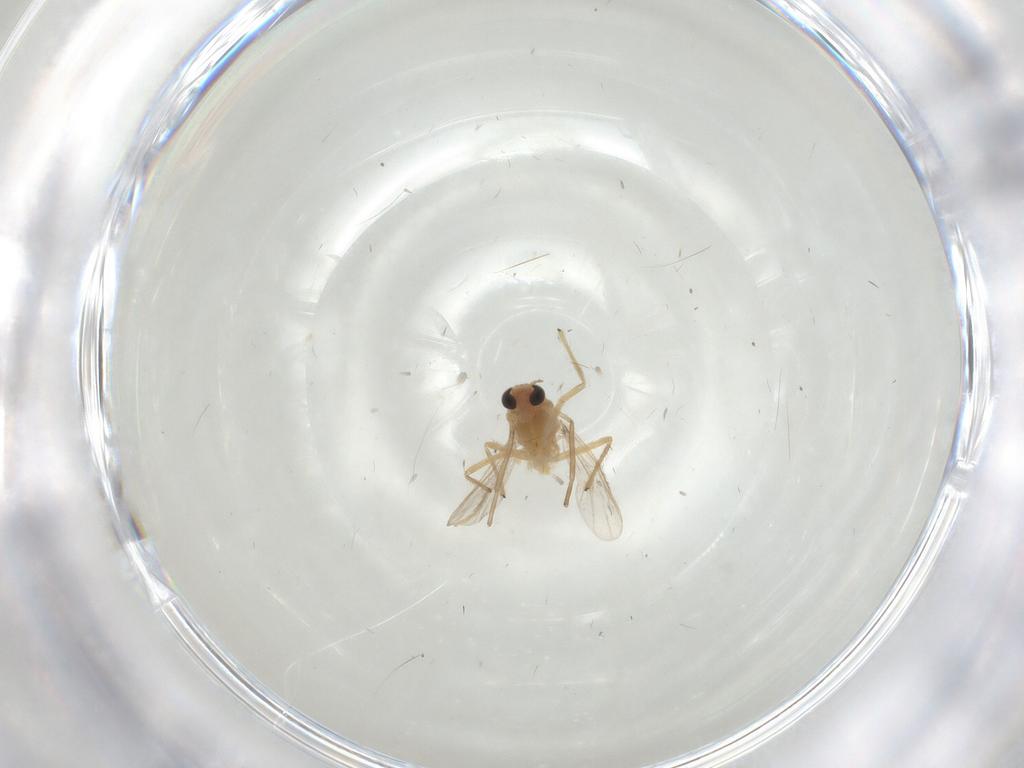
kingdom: Animalia
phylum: Arthropoda
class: Insecta
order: Diptera
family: Chironomidae
